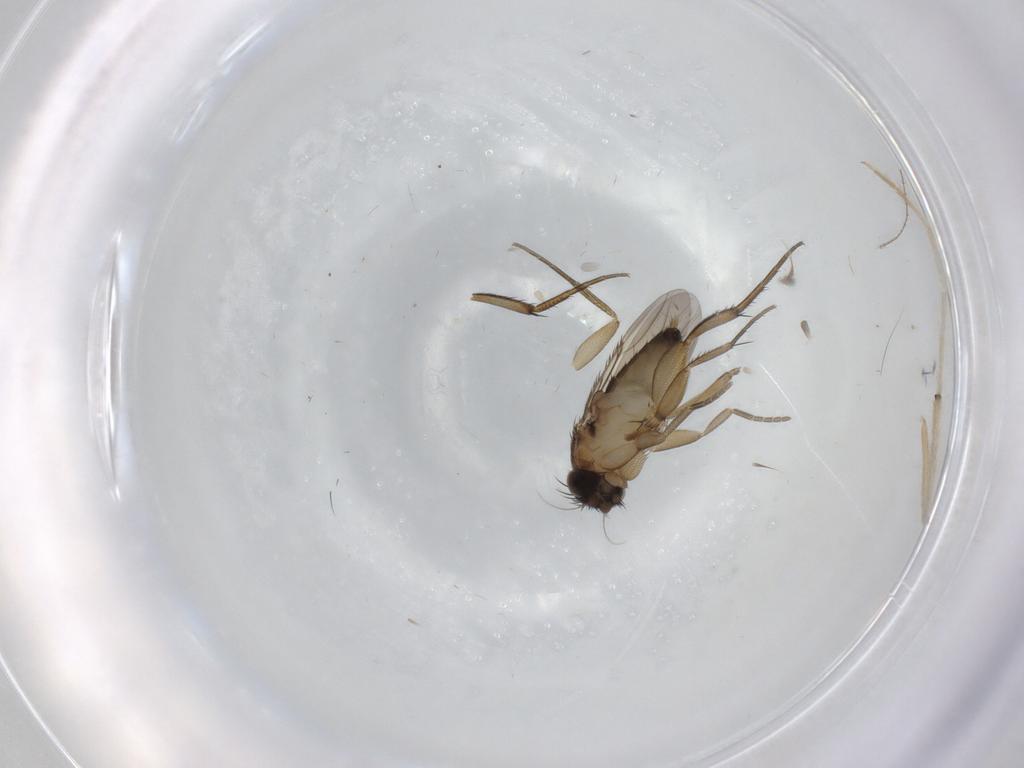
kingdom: Animalia
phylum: Arthropoda
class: Insecta
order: Diptera
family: Phoridae
